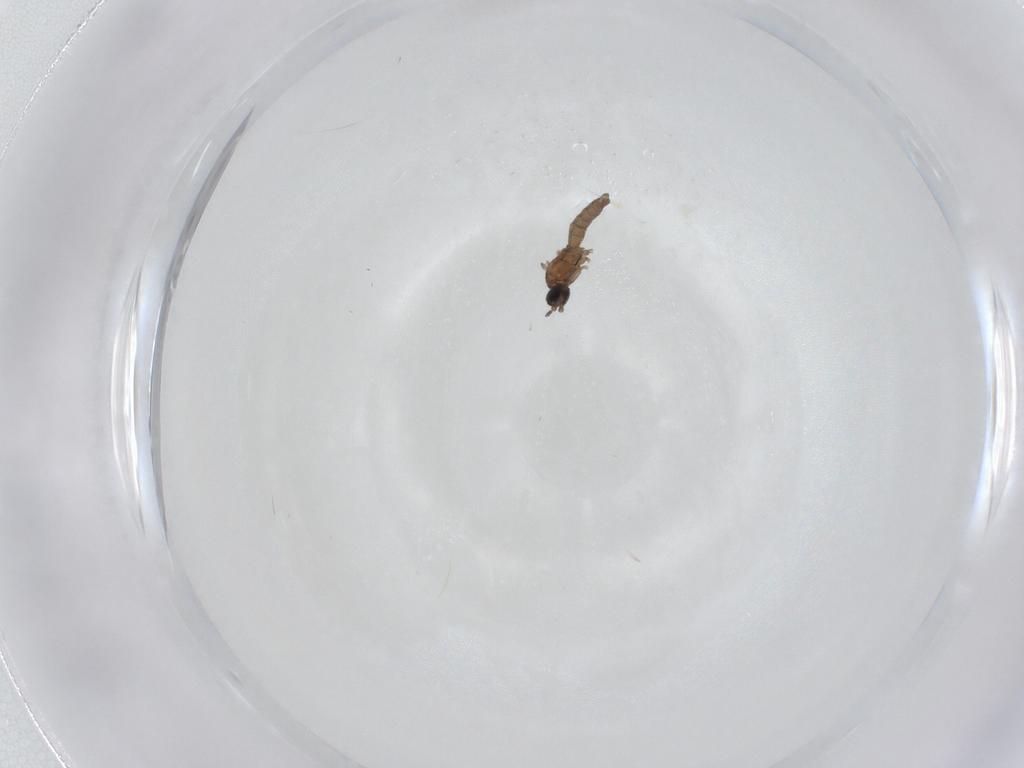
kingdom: Animalia
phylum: Arthropoda
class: Insecta
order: Diptera
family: Sciaridae
